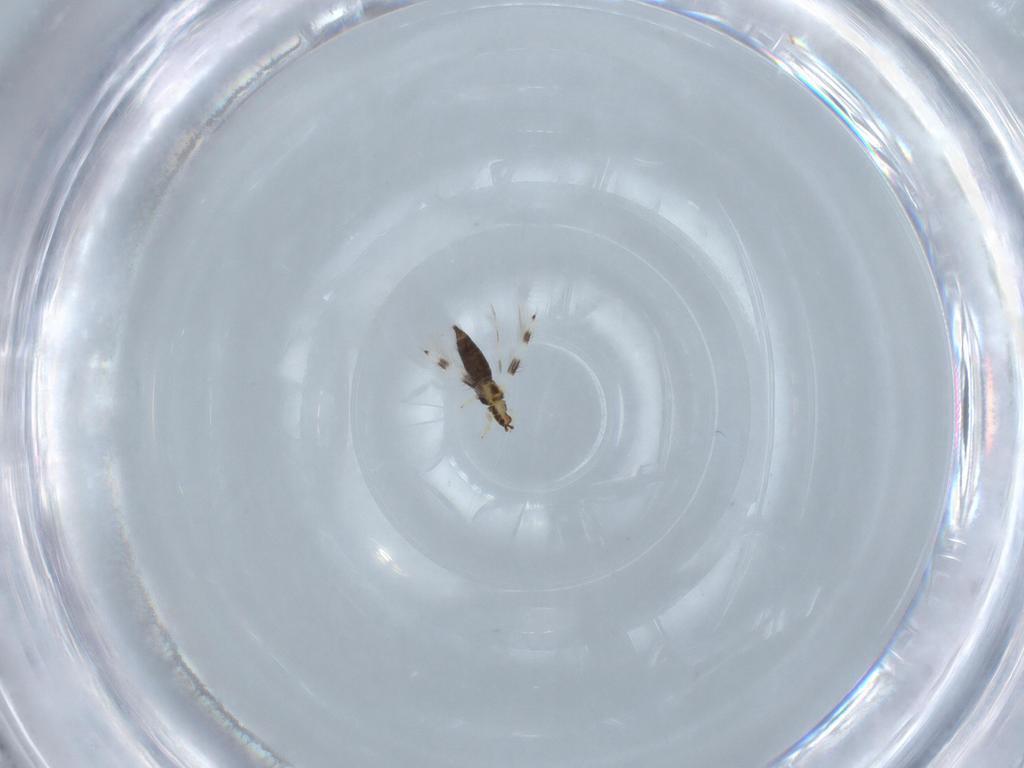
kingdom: Animalia
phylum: Arthropoda
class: Insecta
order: Thysanoptera
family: Thripidae
